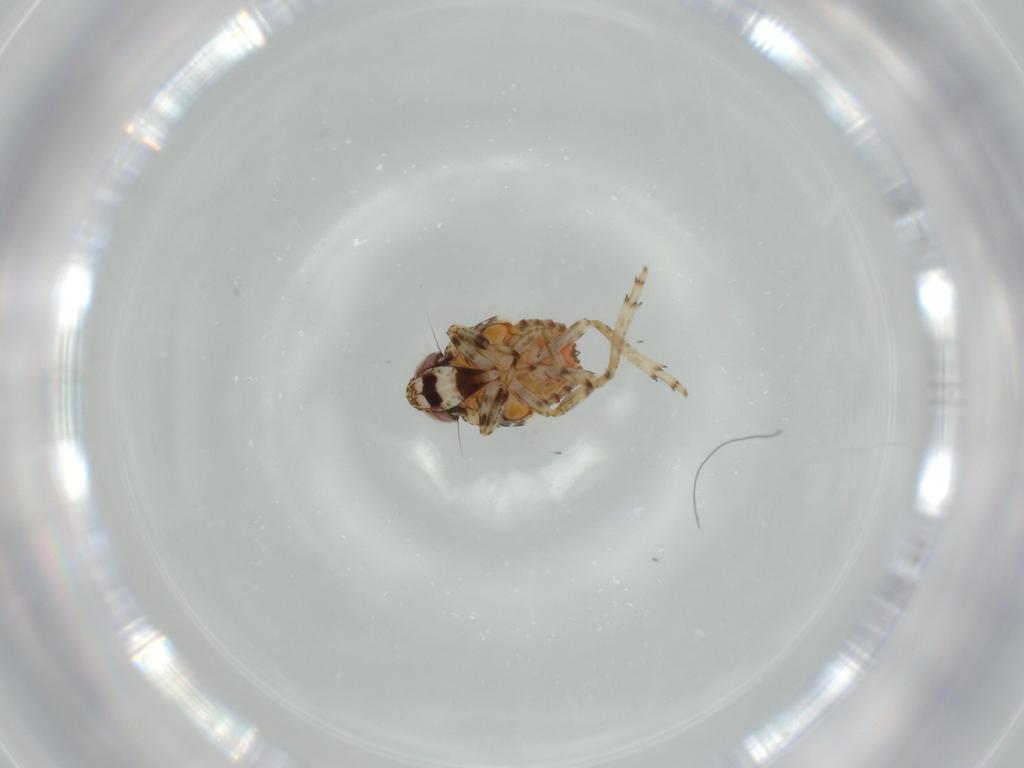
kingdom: Animalia
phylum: Arthropoda
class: Insecta
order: Hemiptera
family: Issidae
